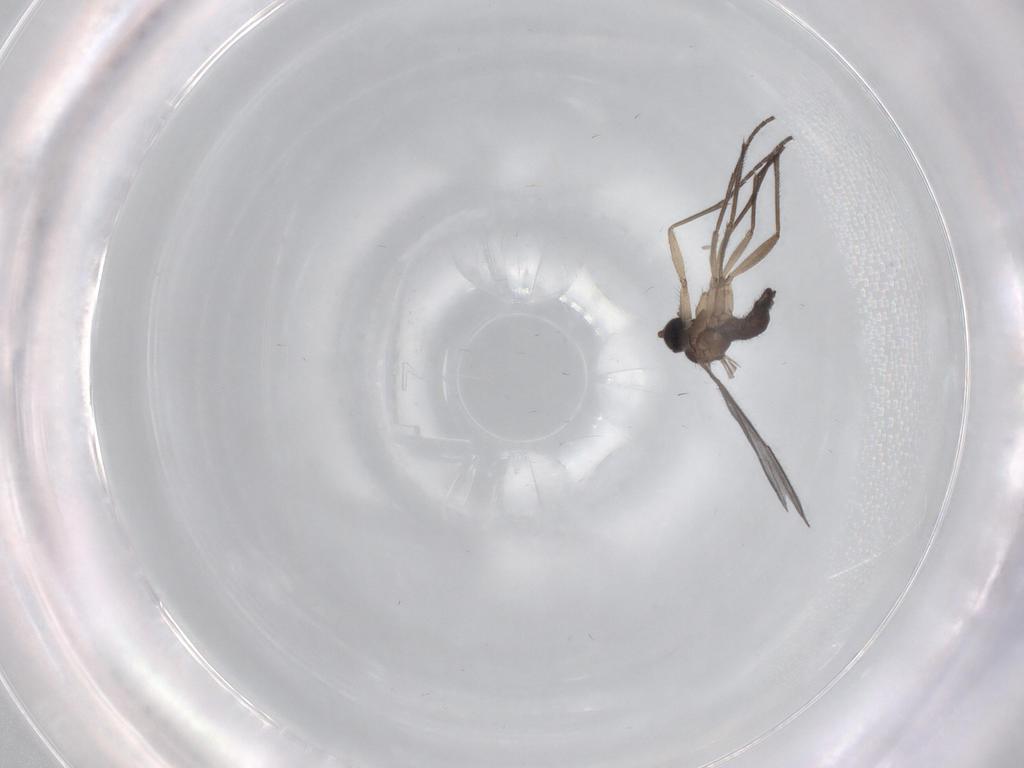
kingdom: Animalia
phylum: Arthropoda
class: Insecta
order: Diptera
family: Sciaridae
